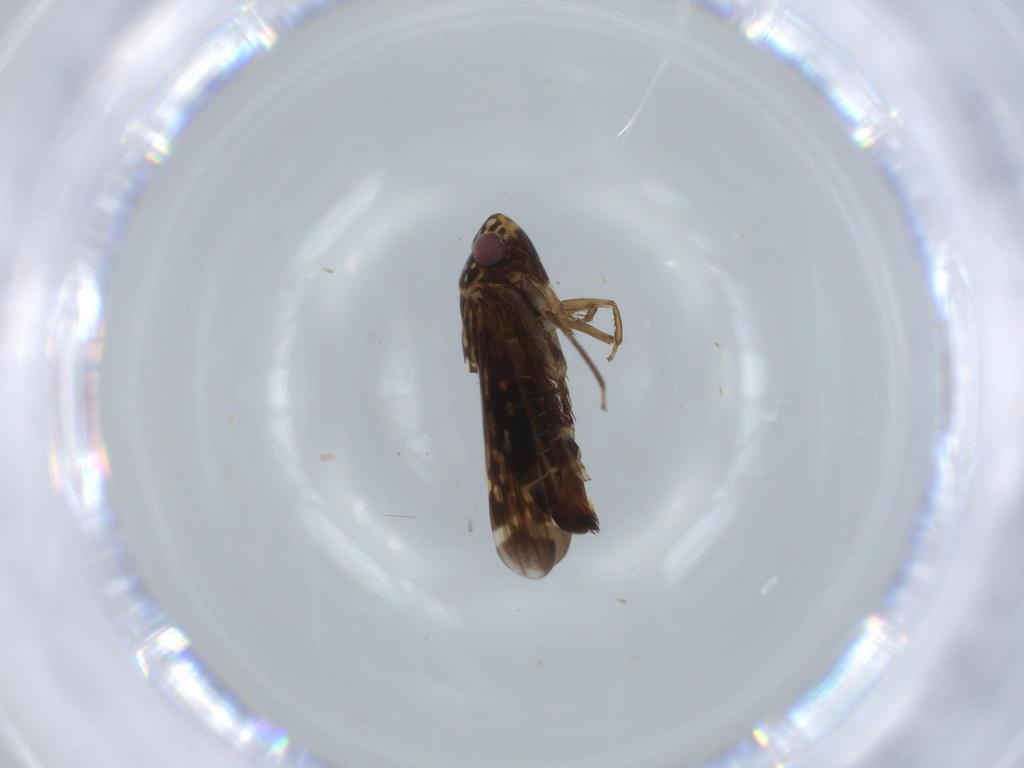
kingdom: Animalia
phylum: Arthropoda
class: Insecta
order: Hemiptera
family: Cicadellidae
